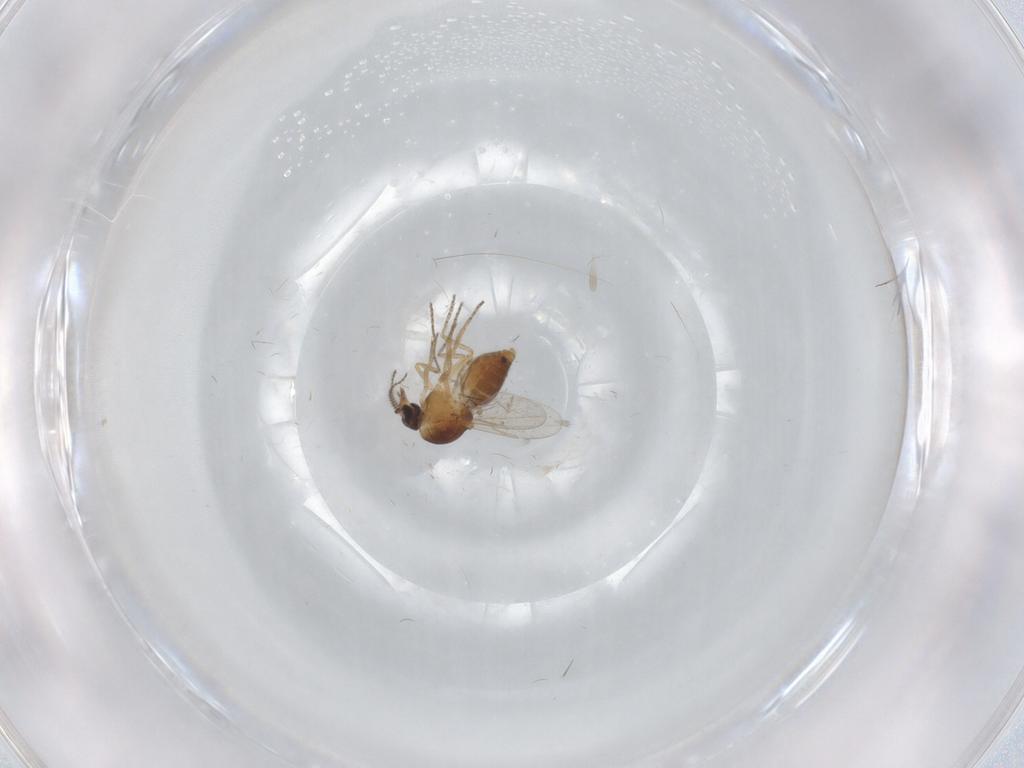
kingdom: Animalia
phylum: Arthropoda
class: Insecta
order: Diptera
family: Ceratopogonidae
